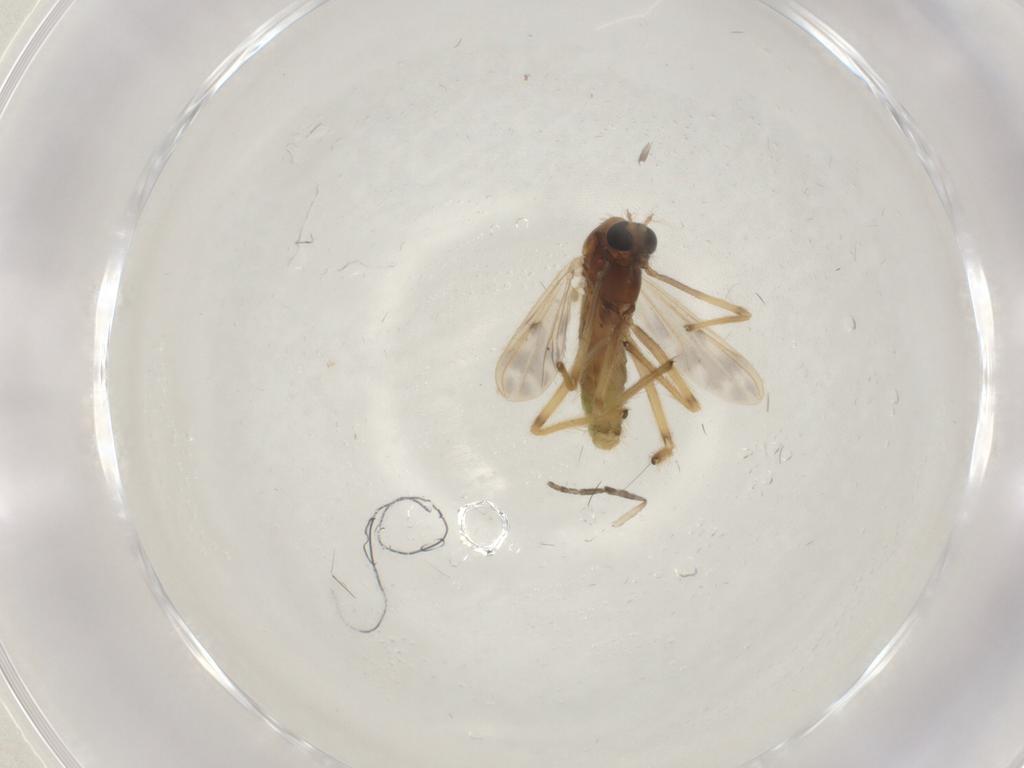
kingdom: Animalia
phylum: Arthropoda
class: Insecta
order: Diptera
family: Chironomidae
